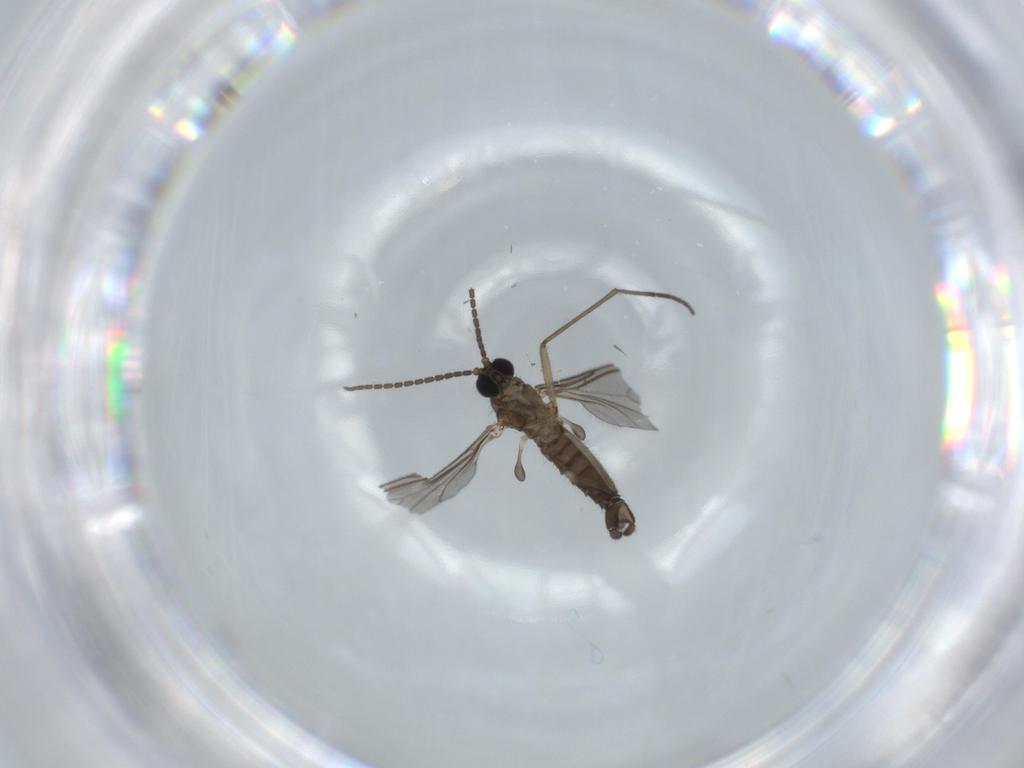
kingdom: Animalia
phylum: Arthropoda
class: Insecta
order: Diptera
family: Sciaridae
